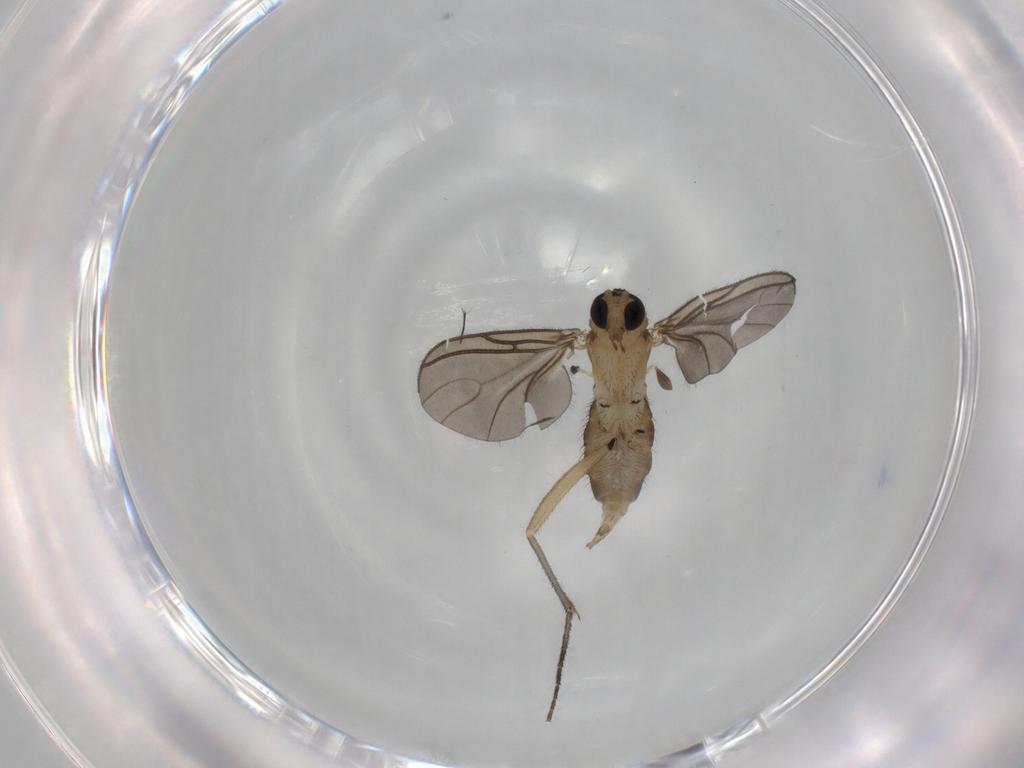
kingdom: Animalia
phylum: Arthropoda
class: Insecta
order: Diptera
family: Sciaridae
